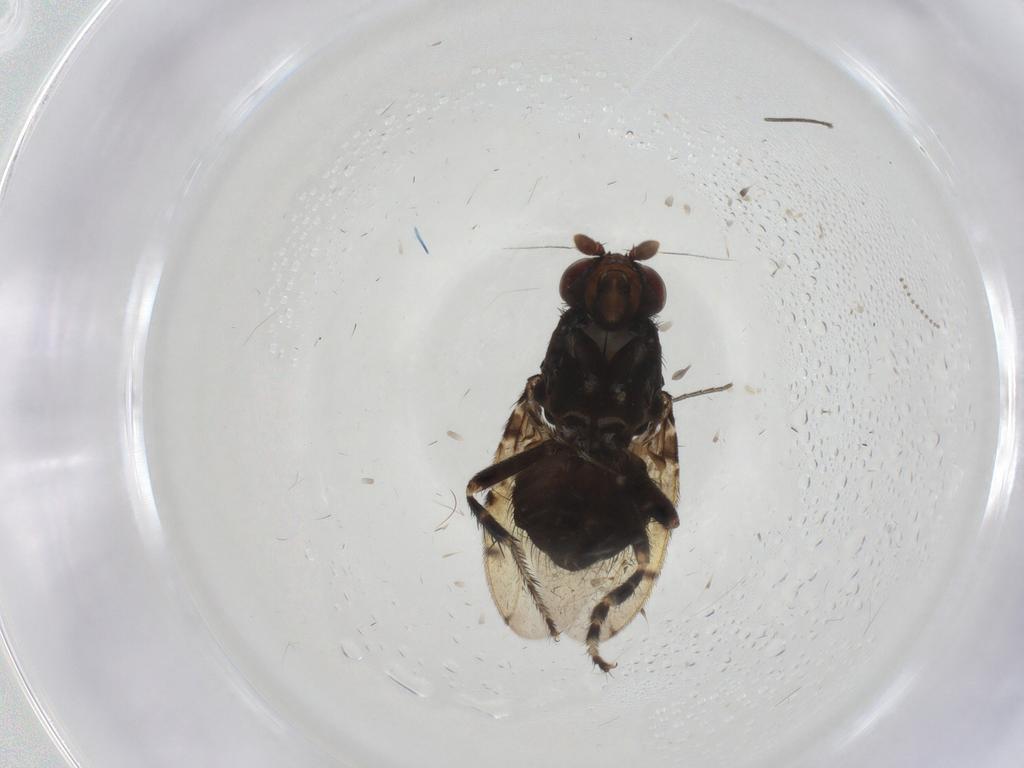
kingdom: Animalia
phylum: Arthropoda
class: Insecta
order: Diptera
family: Sphaeroceridae
